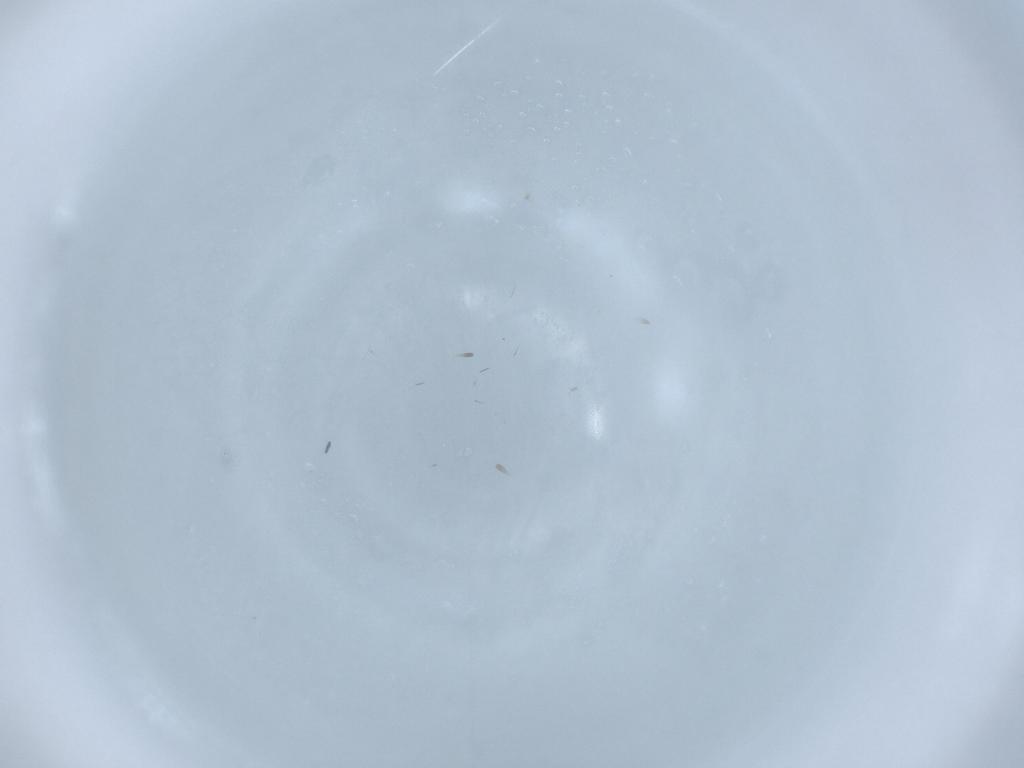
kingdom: Animalia
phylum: Arthropoda
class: Insecta
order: Thysanoptera
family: Phlaeothripidae
